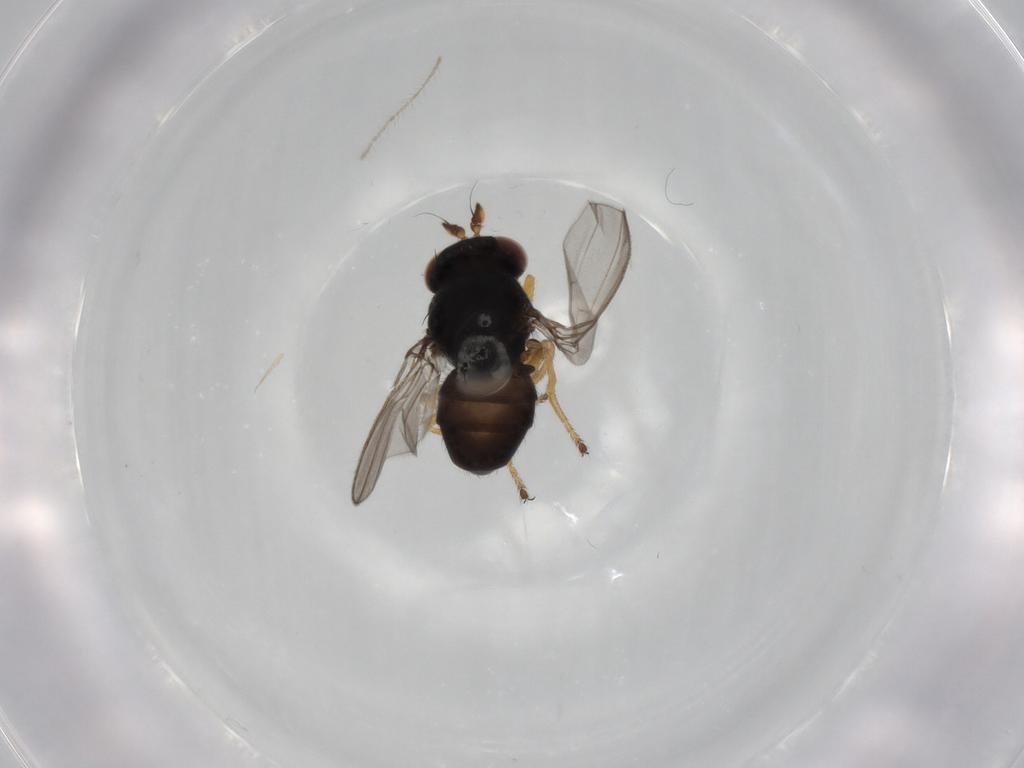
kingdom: Animalia
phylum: Arthropoda
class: Insecta
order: Diptera
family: Ephydridae
